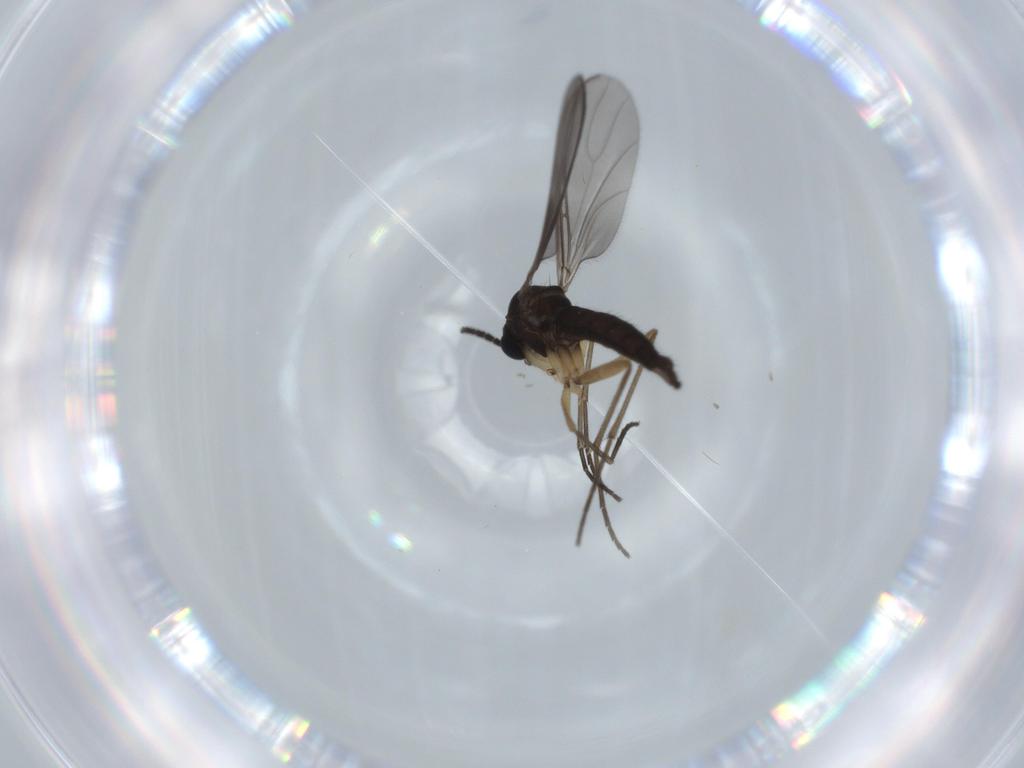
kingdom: Animalia
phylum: Arthropoda
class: Insecta
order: Diptera
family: Sciaridae
